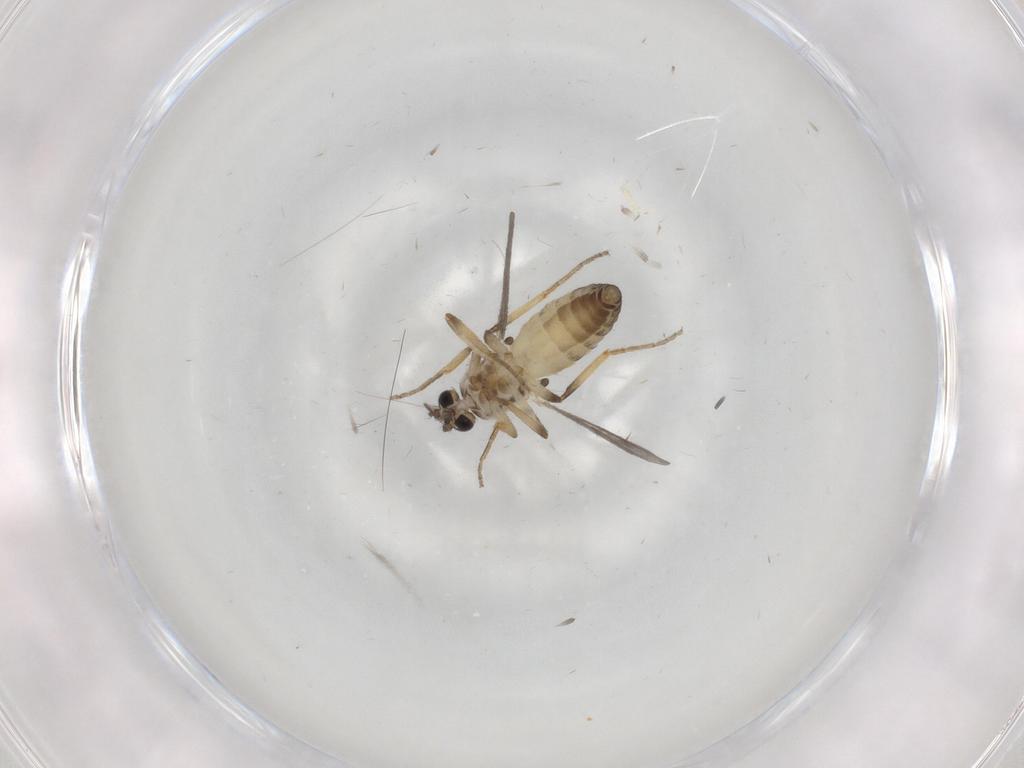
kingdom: Animalia
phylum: Arthropoda
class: Insecta
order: Diptera
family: Ceratopogonidae
